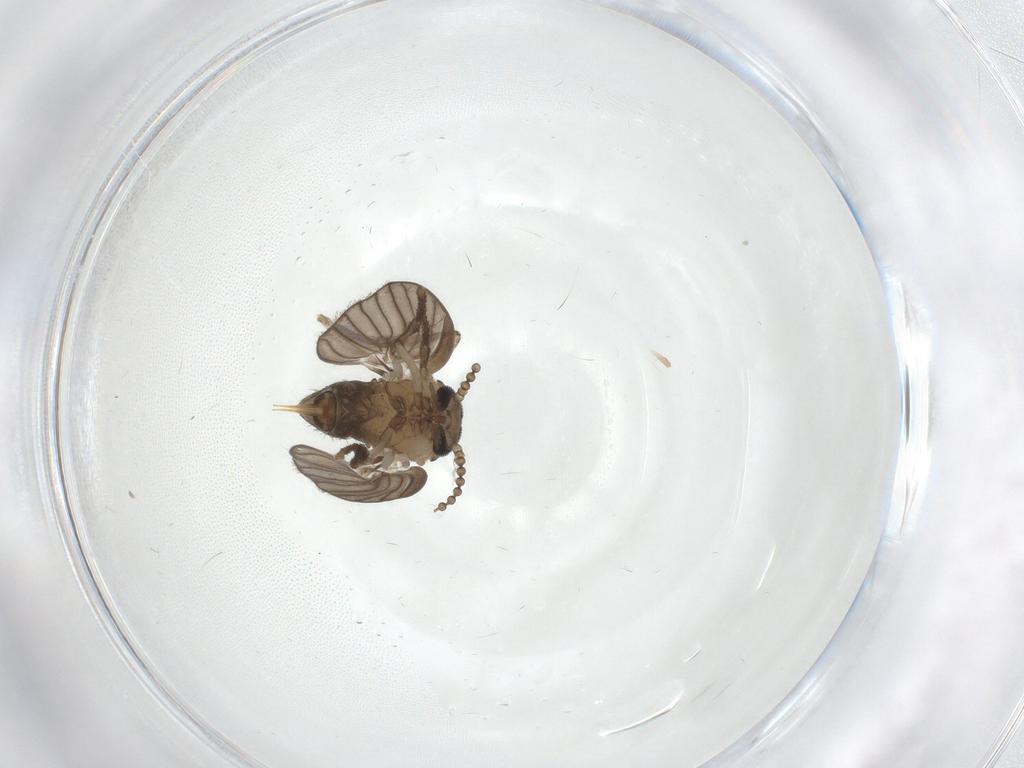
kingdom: Animalia
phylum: Arthropoda
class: Insecta
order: Diptera
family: Psychodidae
